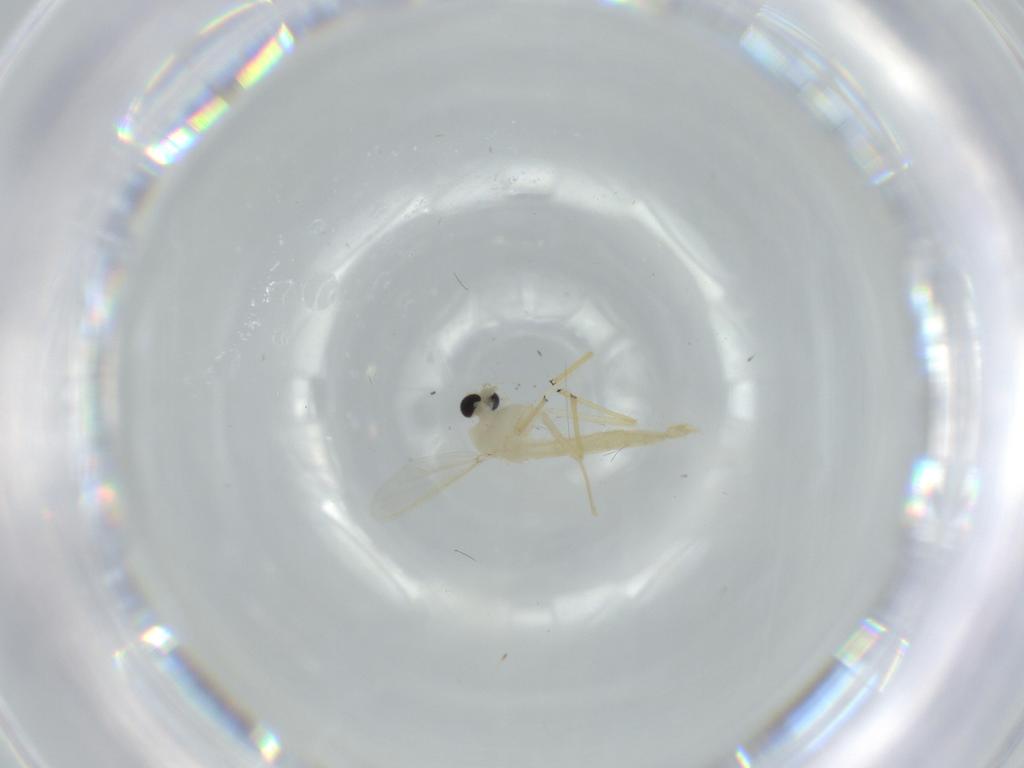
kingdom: Animalia
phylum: Arthropoda
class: Insecta
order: Diptera
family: Chironomidae
